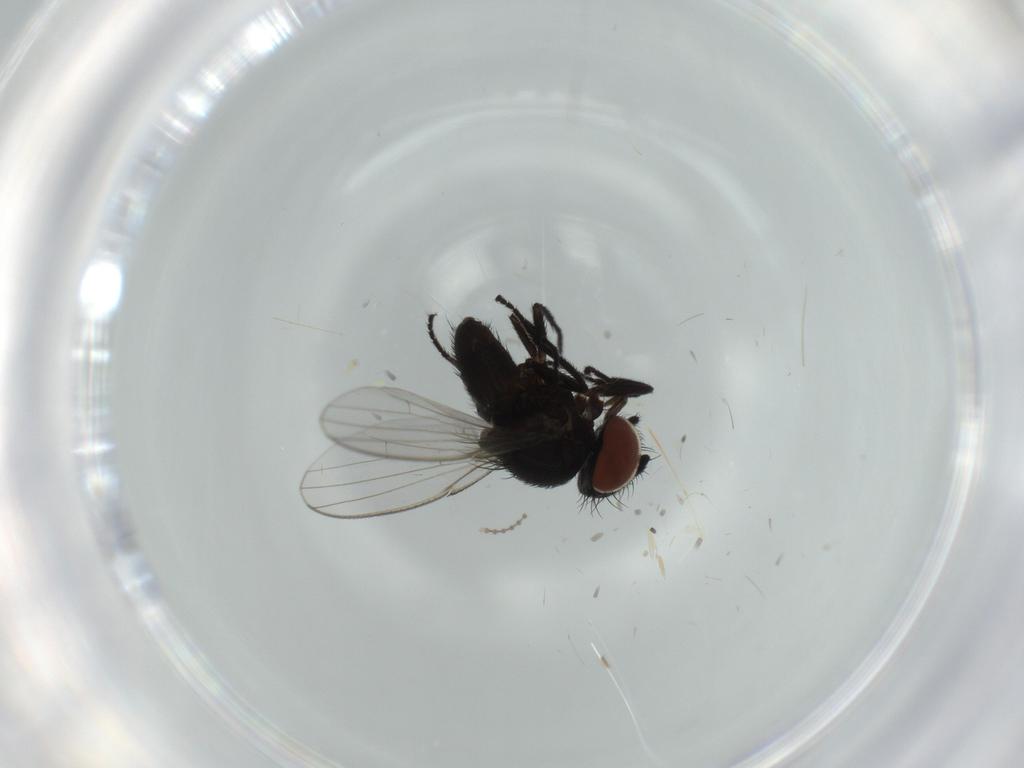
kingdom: Animalia
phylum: Arthropoda
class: Insecta
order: Diptera
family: Milichiidae
